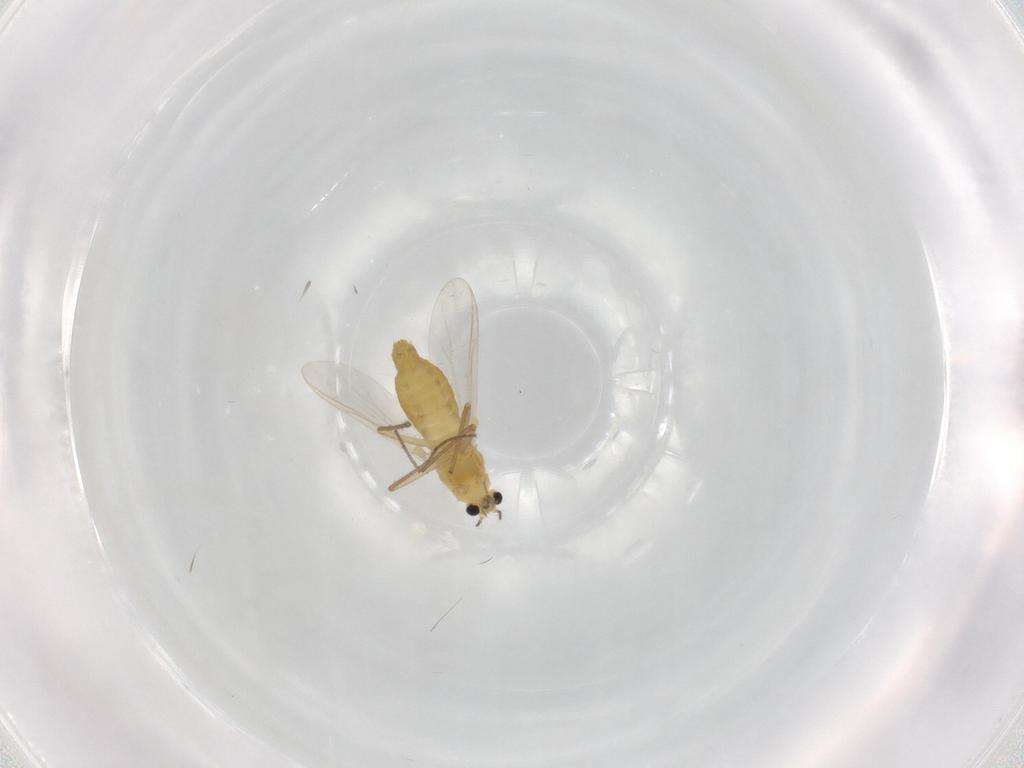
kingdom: Animalia
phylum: Arthropoda
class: Insecta
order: Diptera
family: Chironomidae
